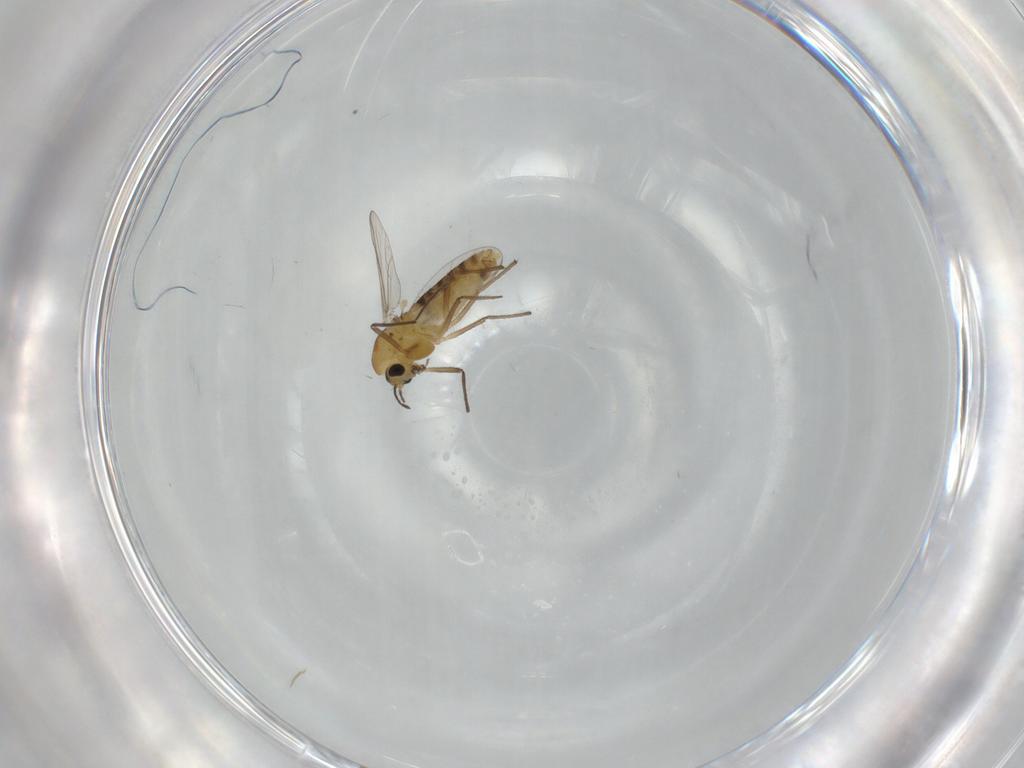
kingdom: Animalia
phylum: Arthropoda
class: Insecta
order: Diptera
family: Chironomidae
